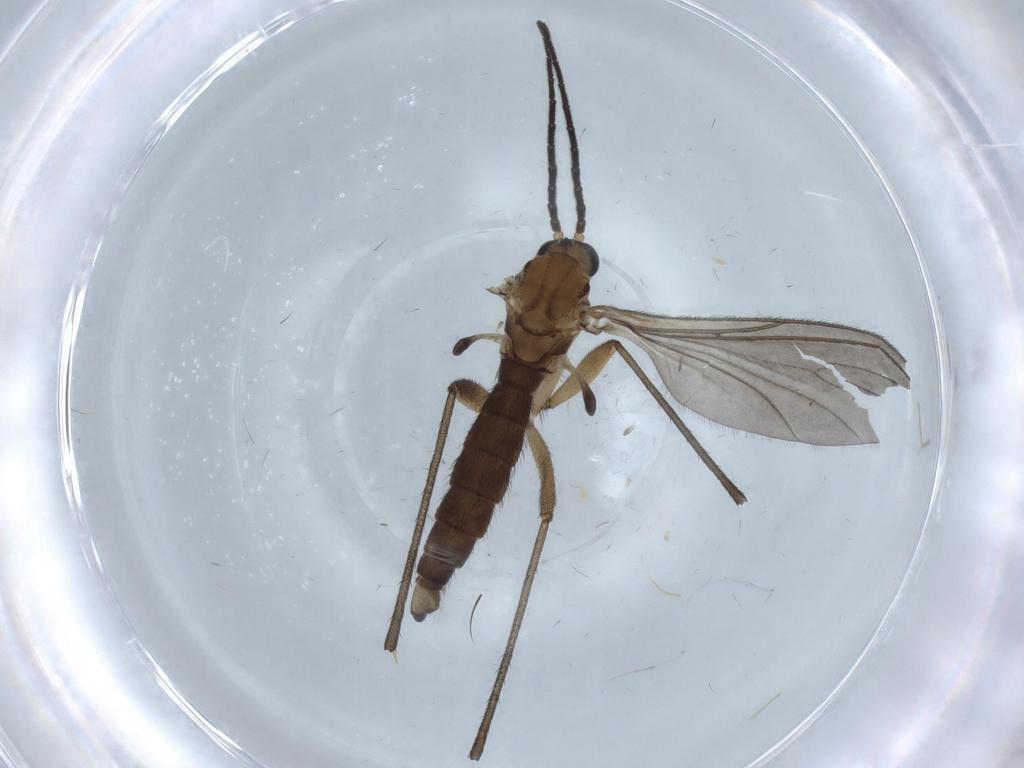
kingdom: Animalia
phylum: Arthropoda
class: Insecta
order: Diptera
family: Sciaridae
